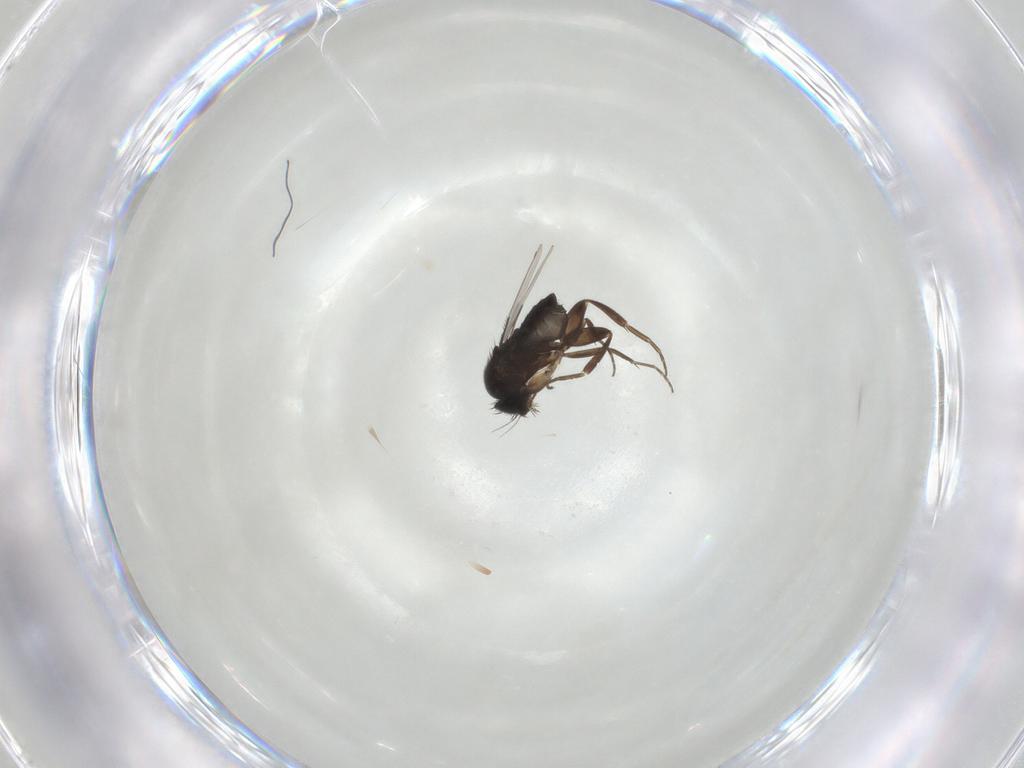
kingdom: Animalia
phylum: Arthropoda
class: Insecta
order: Diptera
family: Phoridae
